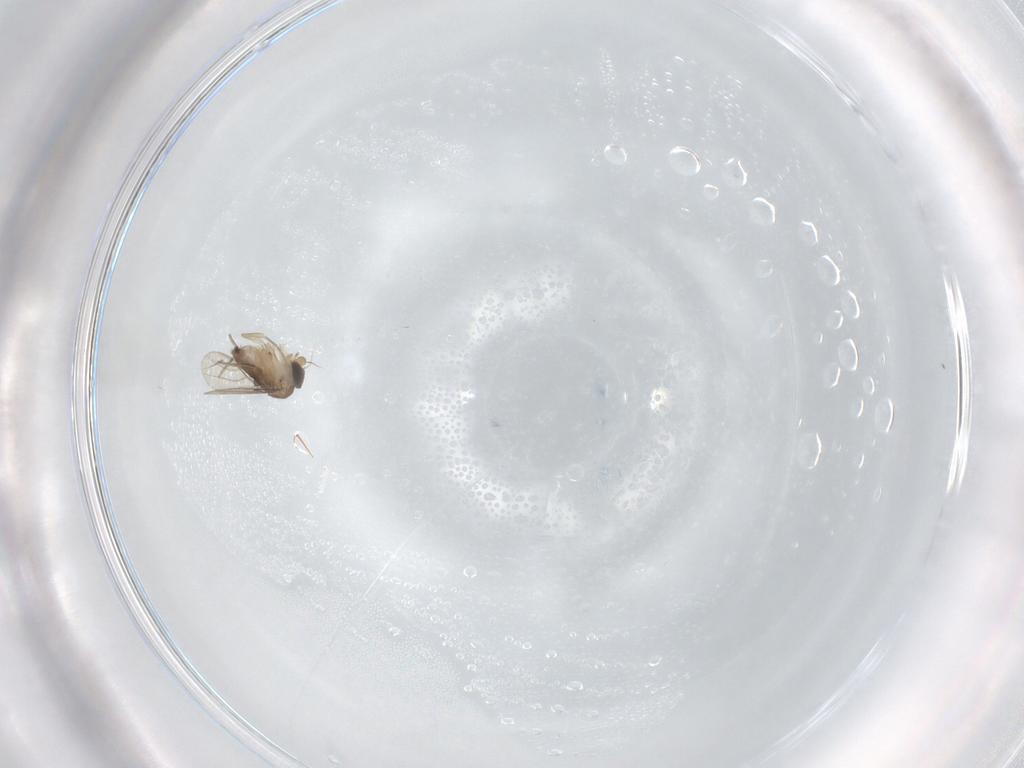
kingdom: Animalia
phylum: Arthropoda
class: Insecta
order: Diptera
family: Phoridae
